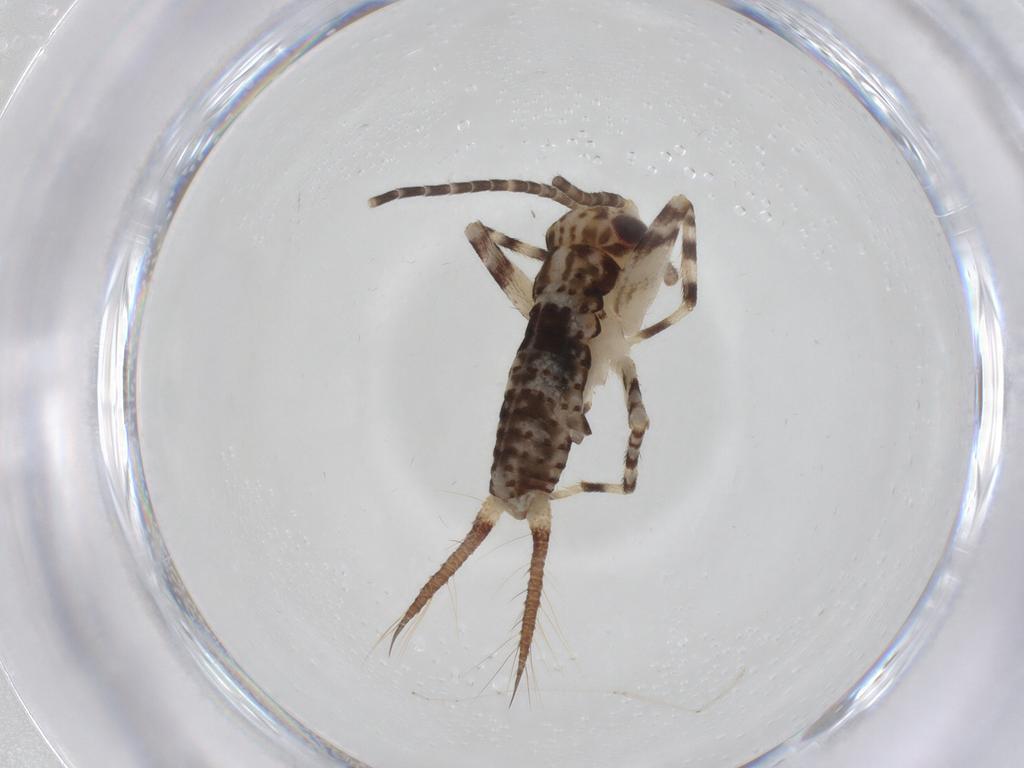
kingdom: Animalia
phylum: Arthropoda
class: Insecta
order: Orthoptera
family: Gryllidae
